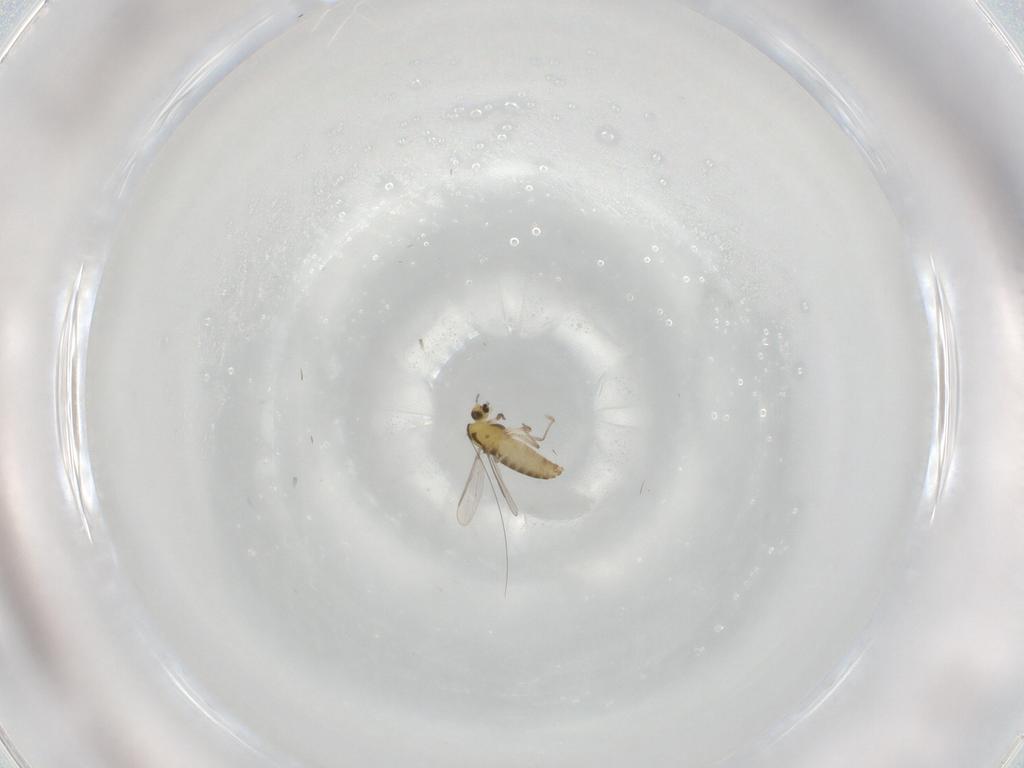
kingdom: Animalia
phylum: Arthropoda
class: Insecta
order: Diptera
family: Chironomidae
